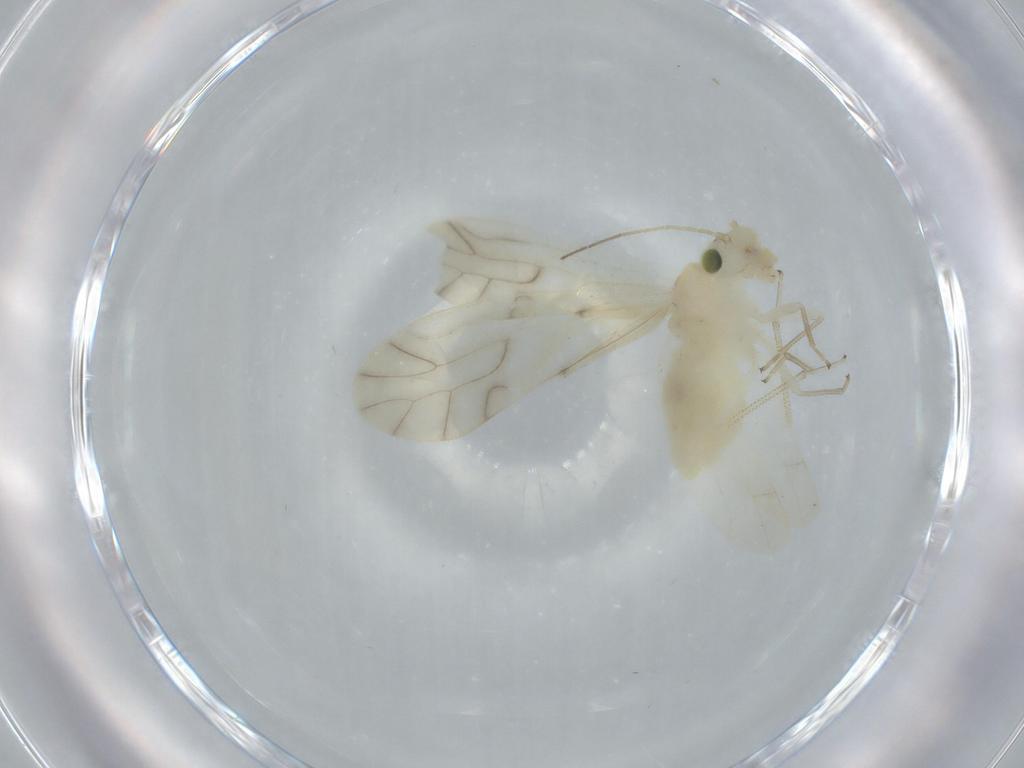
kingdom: Animalia
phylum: Arthropoda
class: Insecta
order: Psocodea
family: Caeciliusidae
